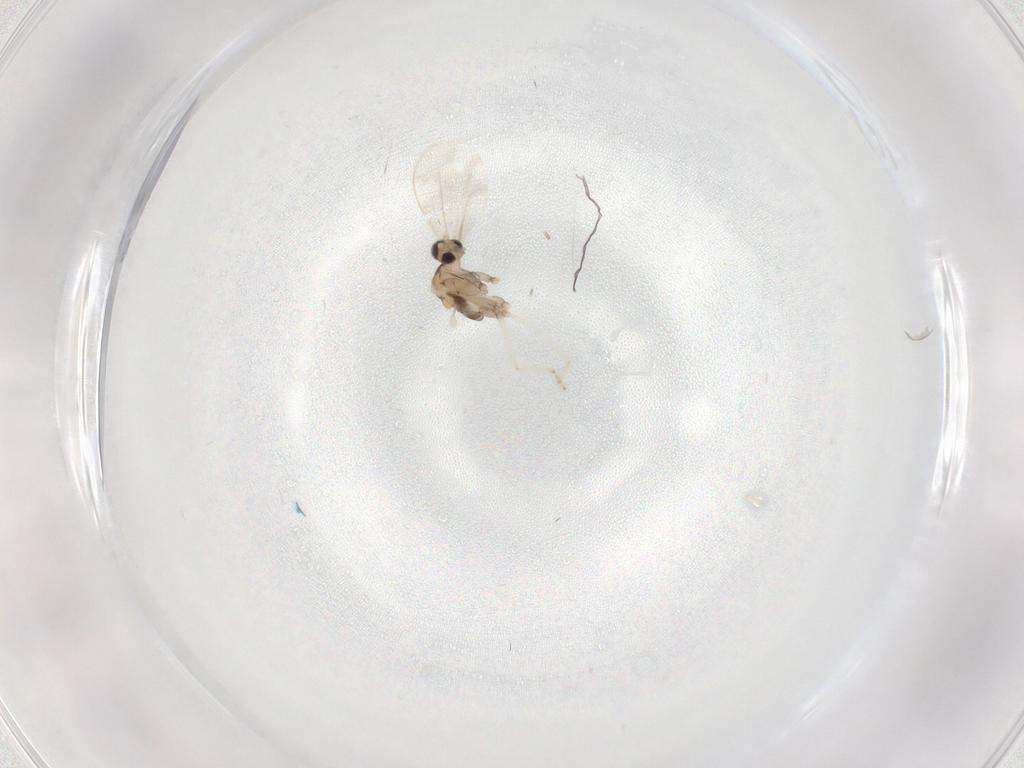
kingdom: Animalia
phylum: Arthropoda
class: Insecta
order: Diptera
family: Cecidomyiidae
